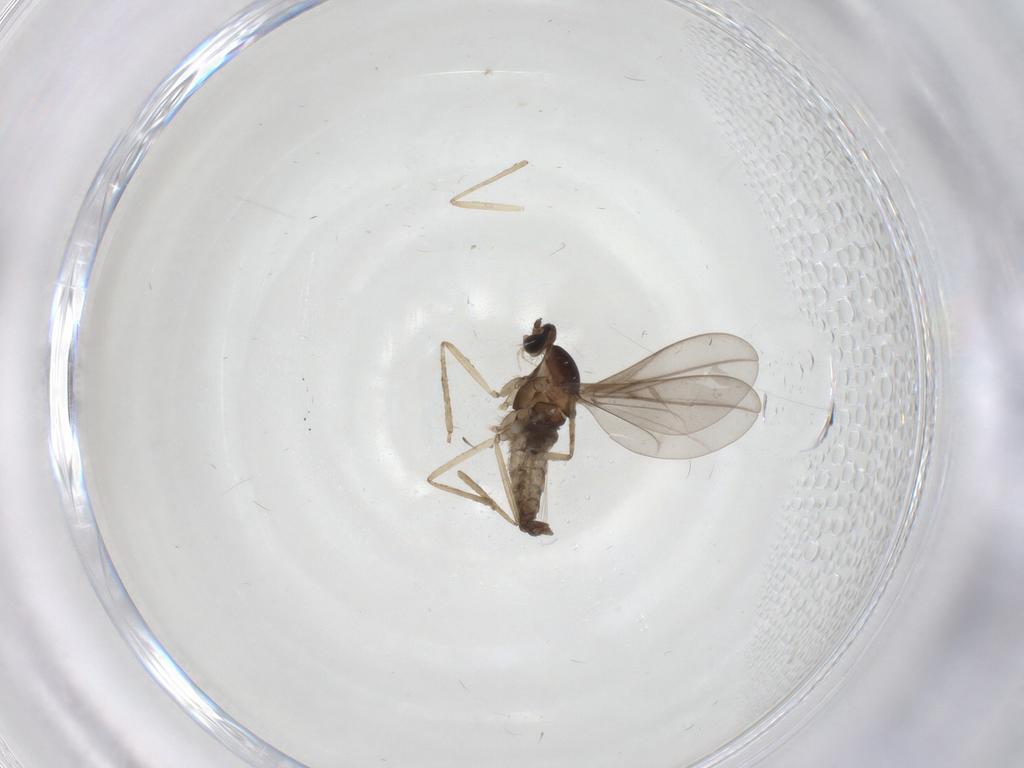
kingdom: Animalia
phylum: Arthropoda
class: Insecta
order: Diptera
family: Cecidomyiidae
